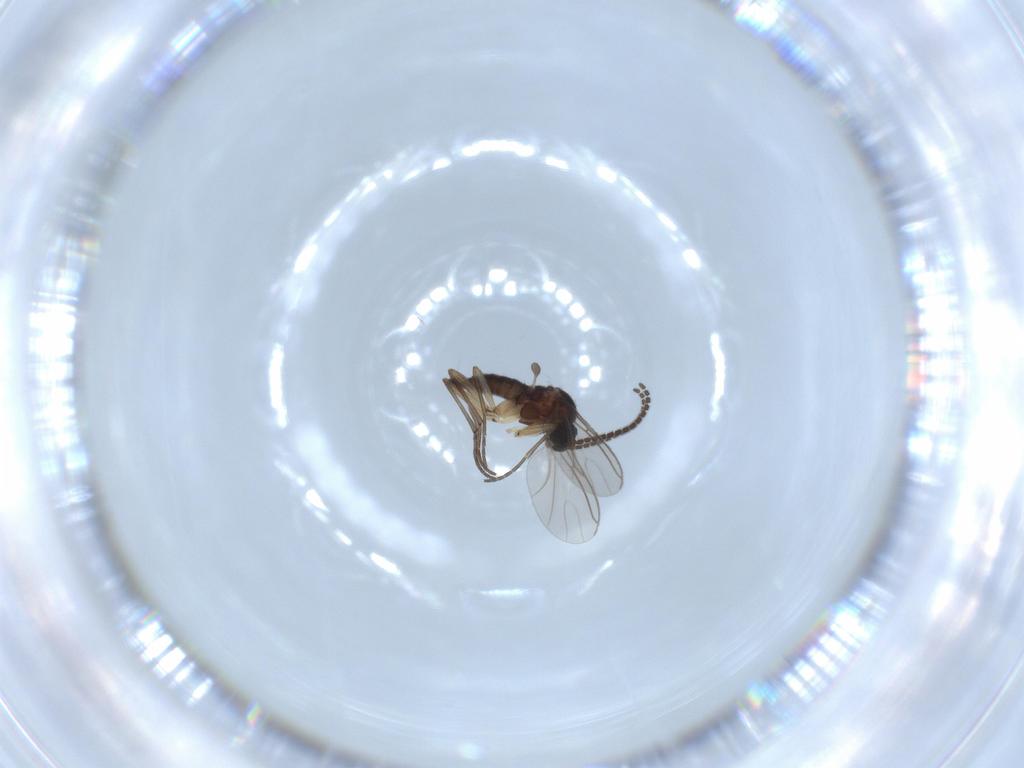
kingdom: Animalia
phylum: Arthropoda
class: Insecta
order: Diptera
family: Sciaridae
